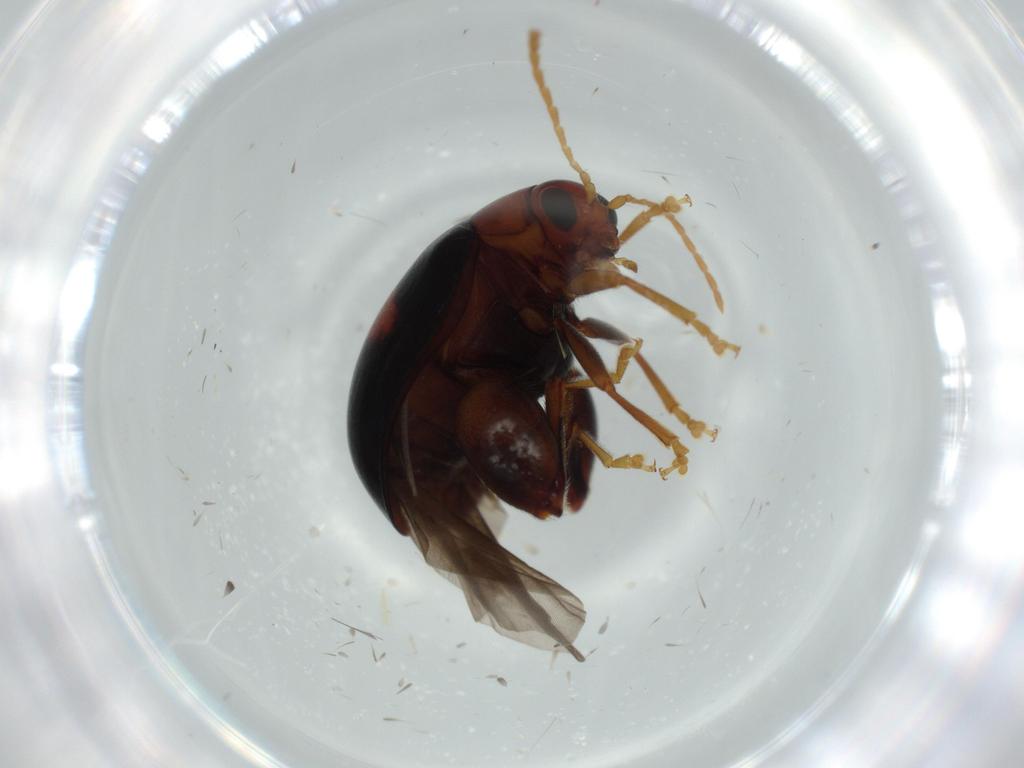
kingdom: Animalia
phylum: Arthropoda
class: Insecta
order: Coleoptera
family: Chrysomelidae
